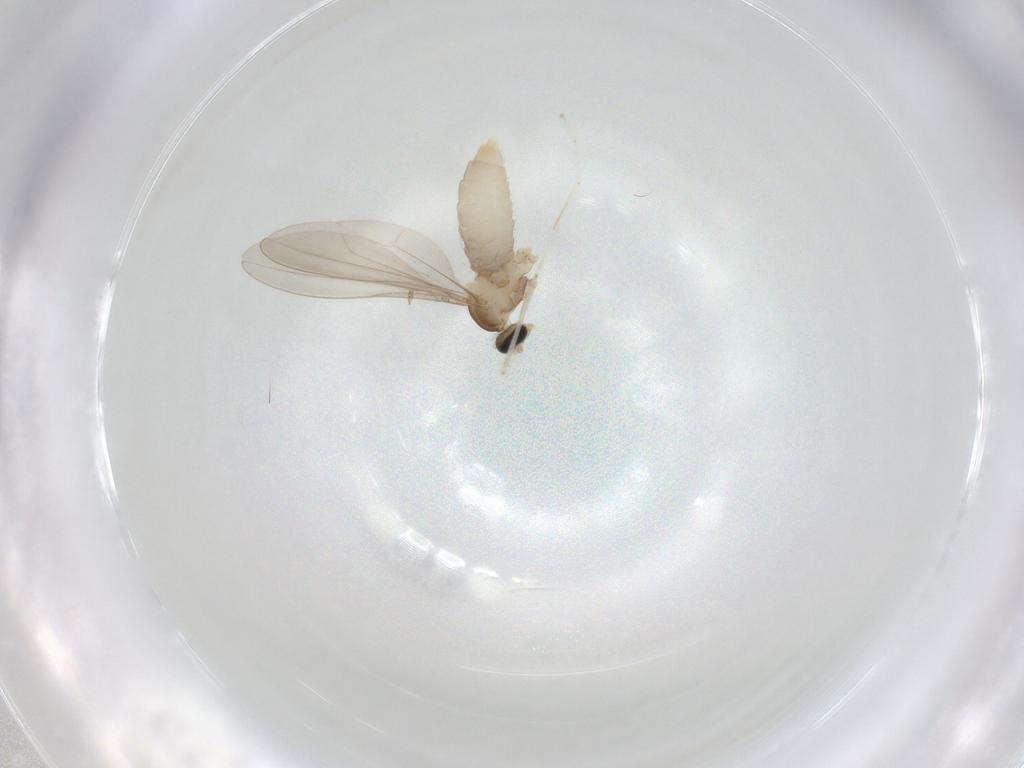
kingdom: Animalia
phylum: Arthropoda
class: Insecta
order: Diptera
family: Cecidomyiidae
